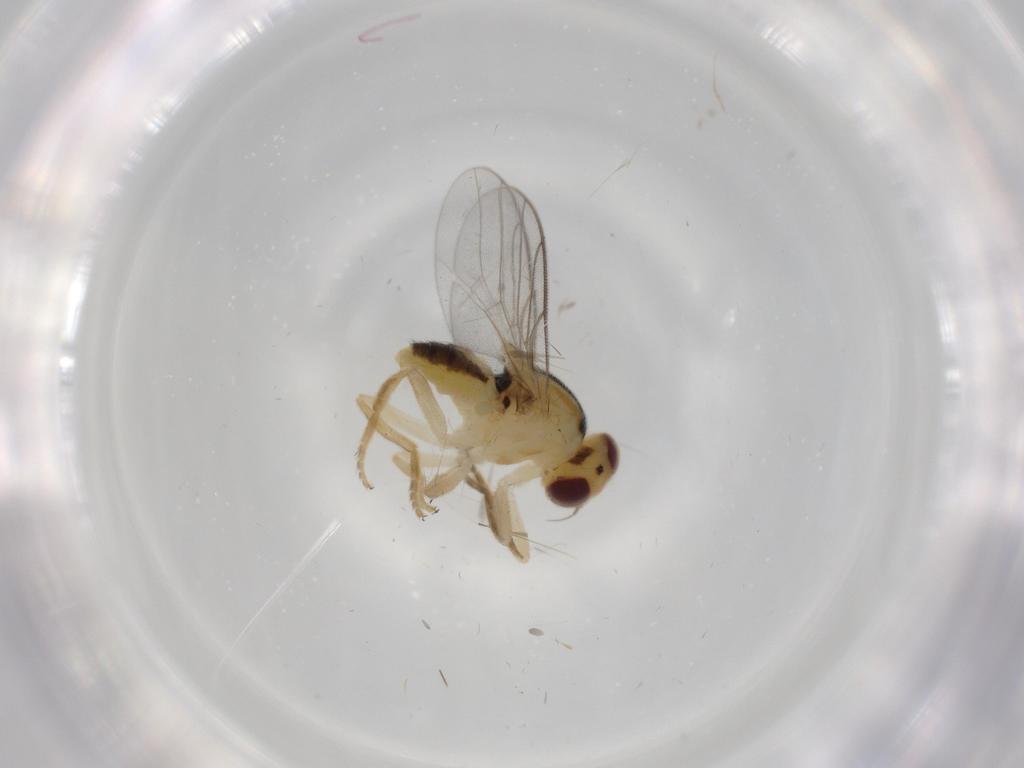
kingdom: Animalia
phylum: Arthropoda
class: Insecta
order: Diptera
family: Chloropidae
